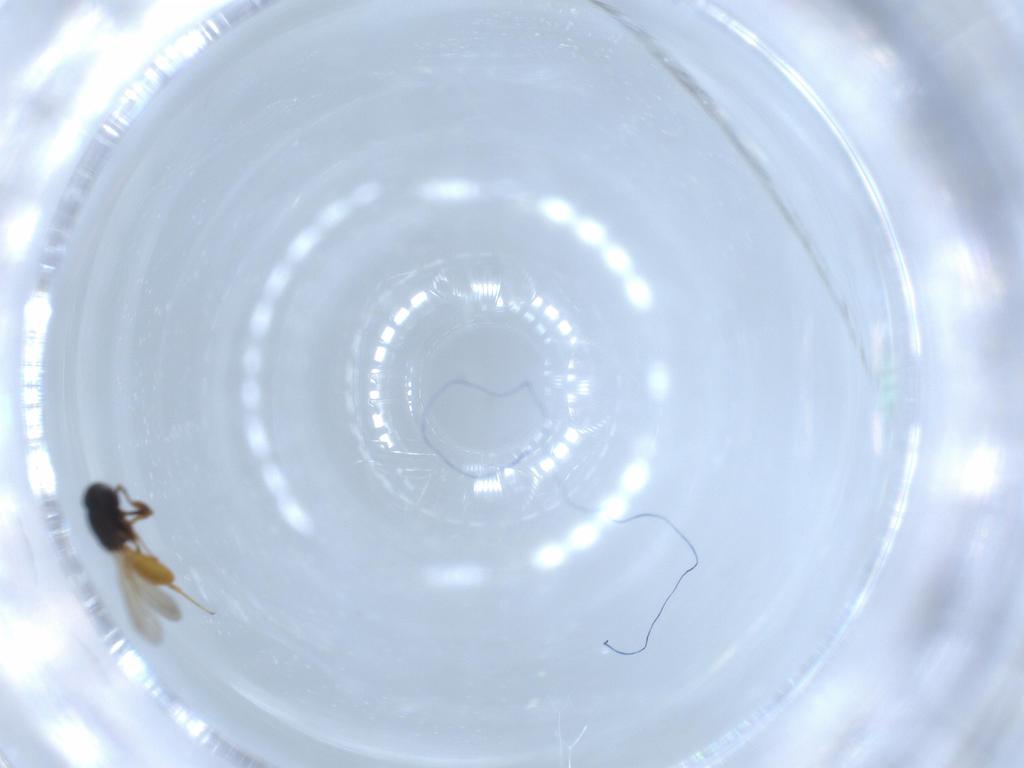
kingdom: Animalia
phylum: Arthropoda
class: Insecta
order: Hymenoptera
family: Scelionidae
